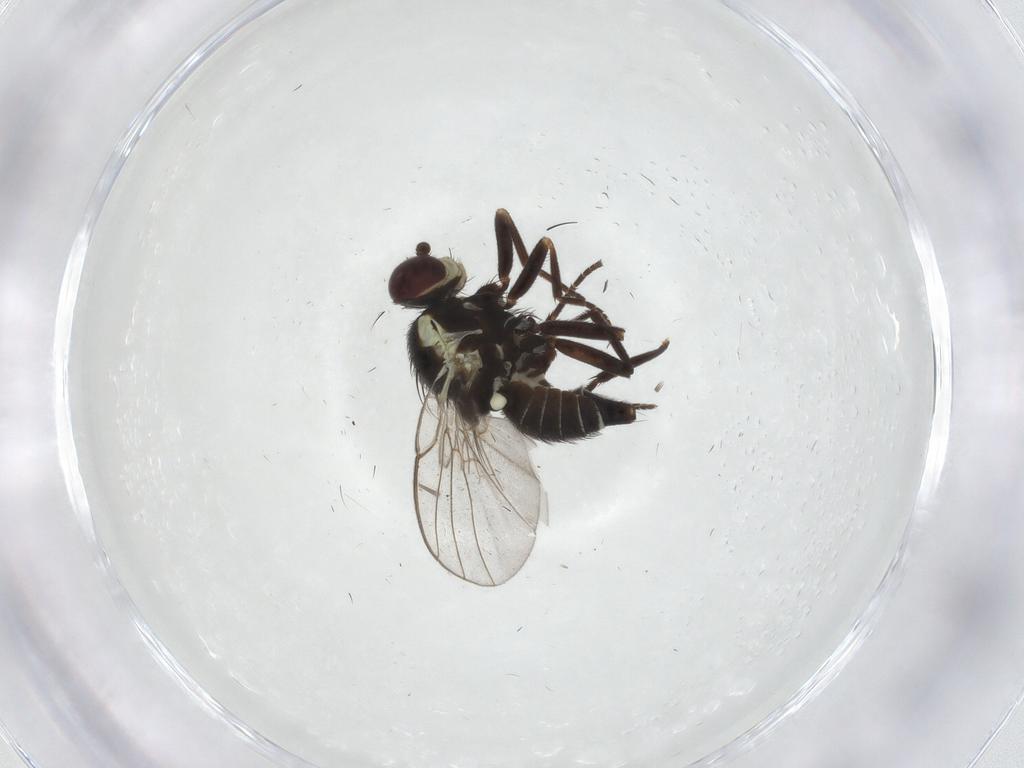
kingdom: Animalia
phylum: Arthropoda
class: Insecta
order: Diptera
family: Agromyzidae
